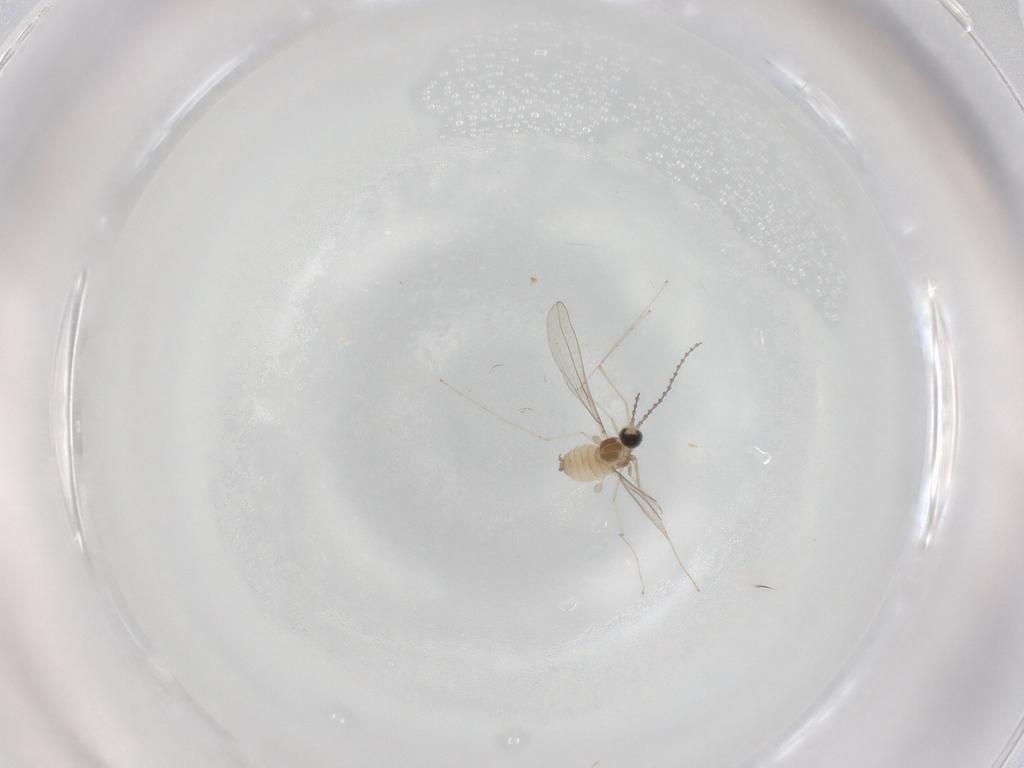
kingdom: Animalia
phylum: Arthropoda
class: Insecta
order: Diptera
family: Cecidomyiidae
